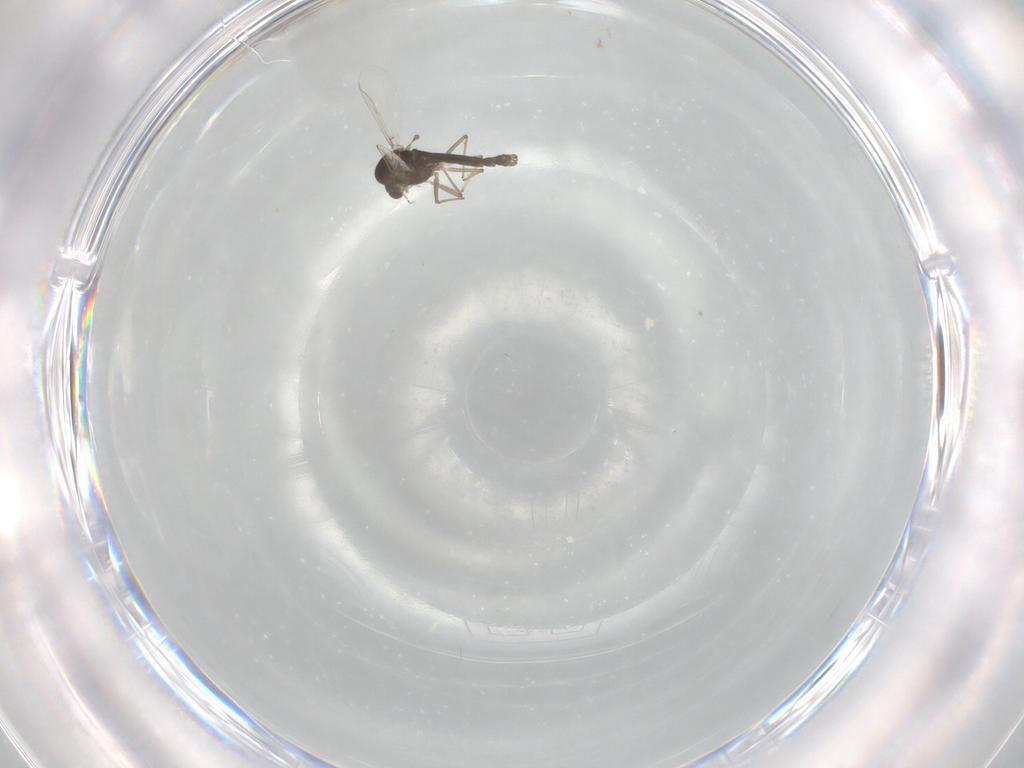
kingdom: Animalia
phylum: Arthropoda
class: Insecta
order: Diptera
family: Chironomidae
